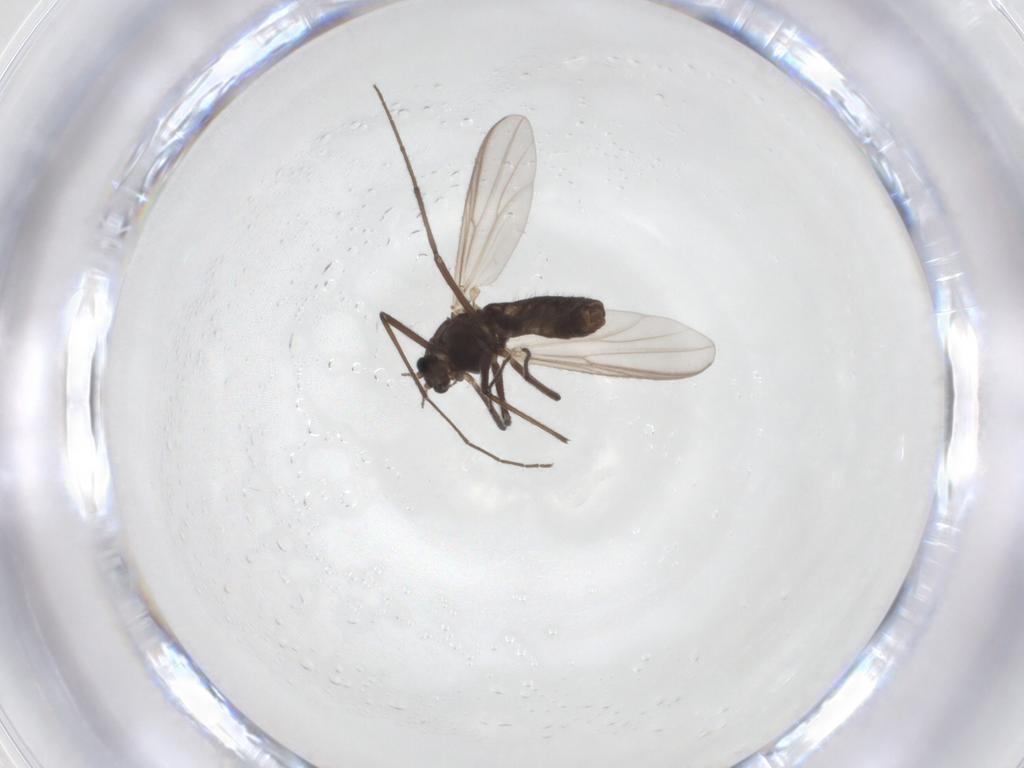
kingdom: Animalia
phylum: Arthropoda
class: Insecta
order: Diptera
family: Chironomidae
